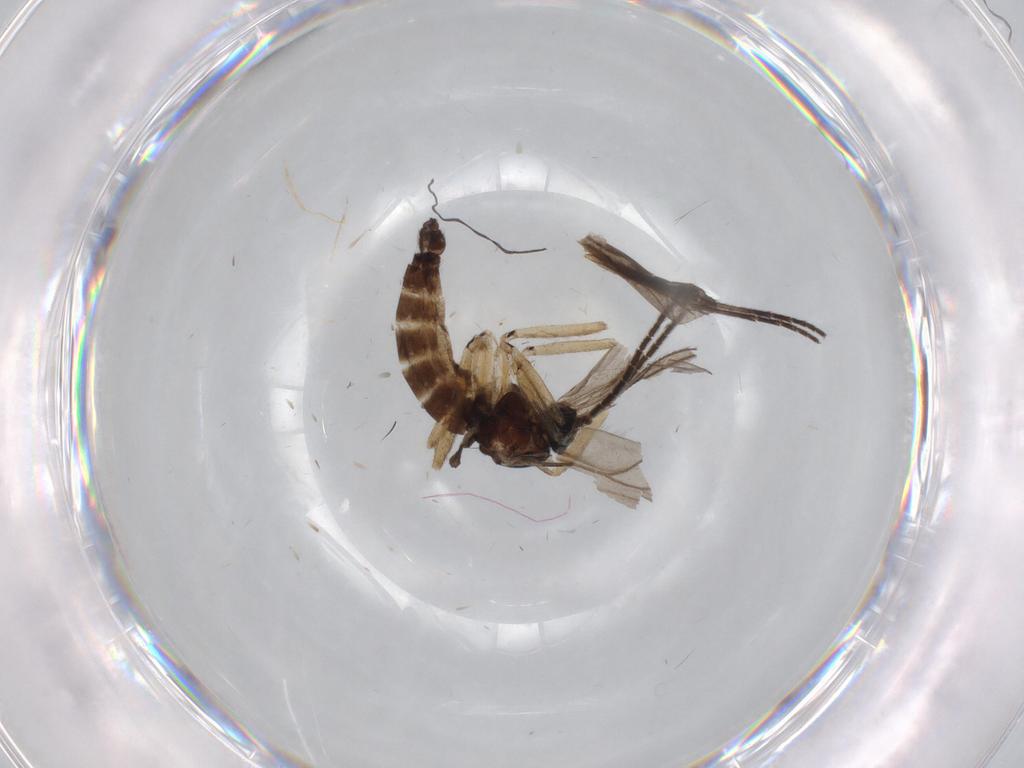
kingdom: Animalia
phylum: Arthropoda
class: Insecta
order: Diptera
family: Sciaridae
